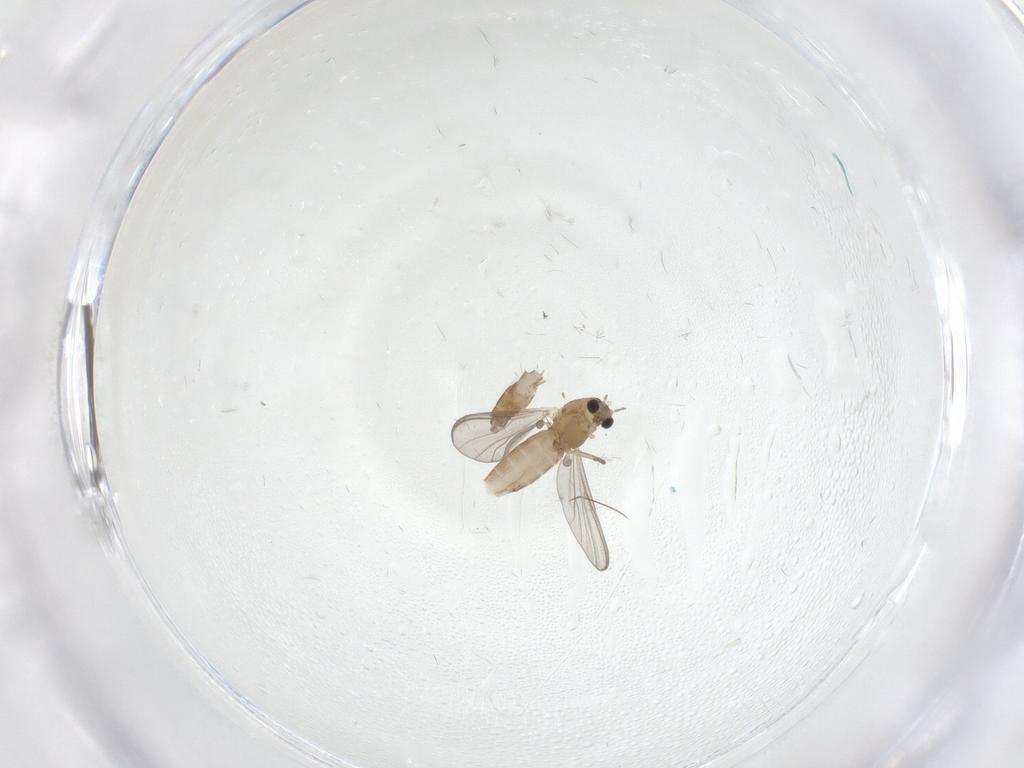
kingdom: Animalia
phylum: Arthropoda
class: Insecta
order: Diptera
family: Chironomidae
